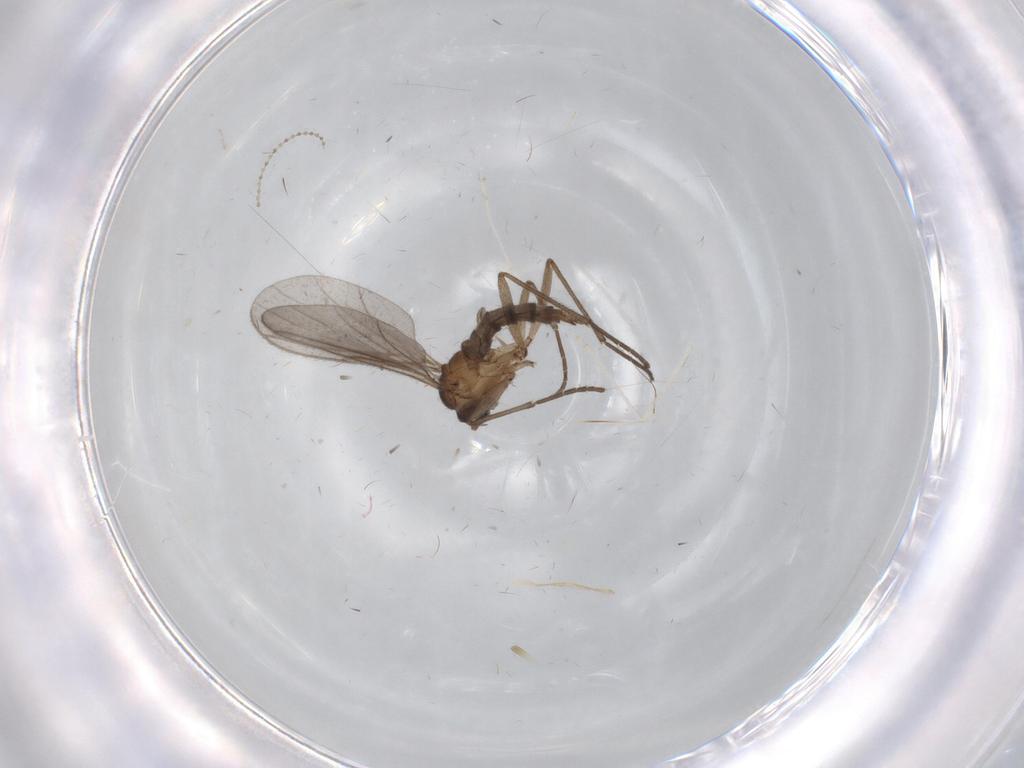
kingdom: Animalia
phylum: Arthropoda
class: Insecta
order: Diptera
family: Sciaridae
